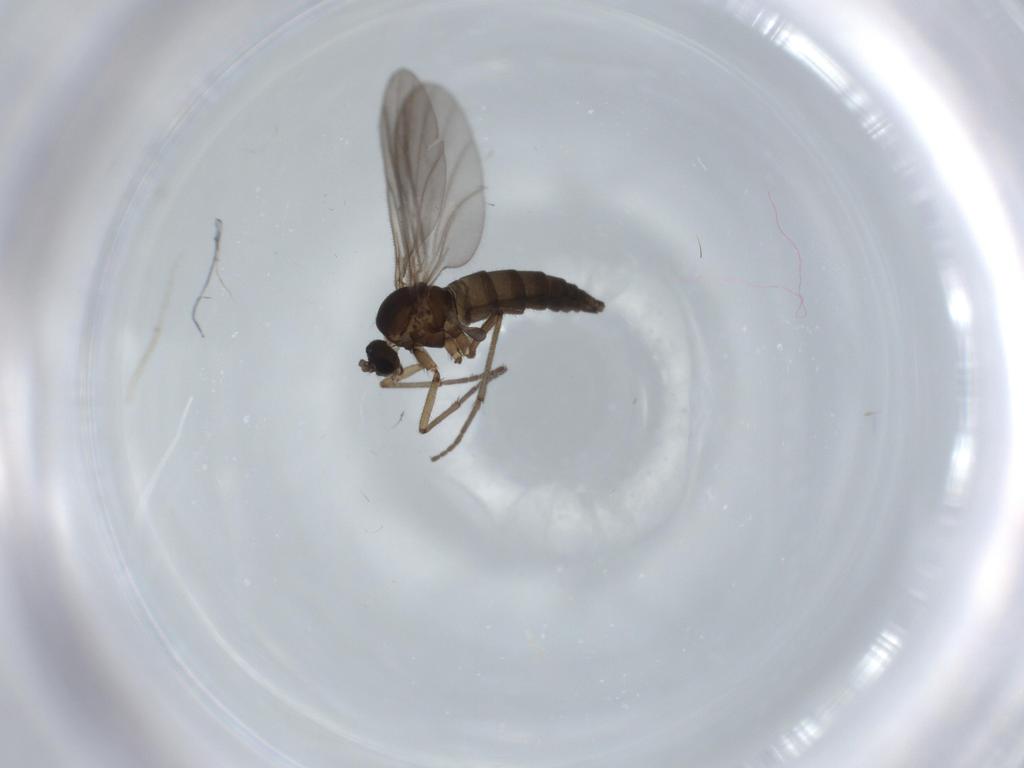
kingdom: Animalia
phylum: Arthropoda
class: Insecta
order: Diptera
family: Sciaridae
